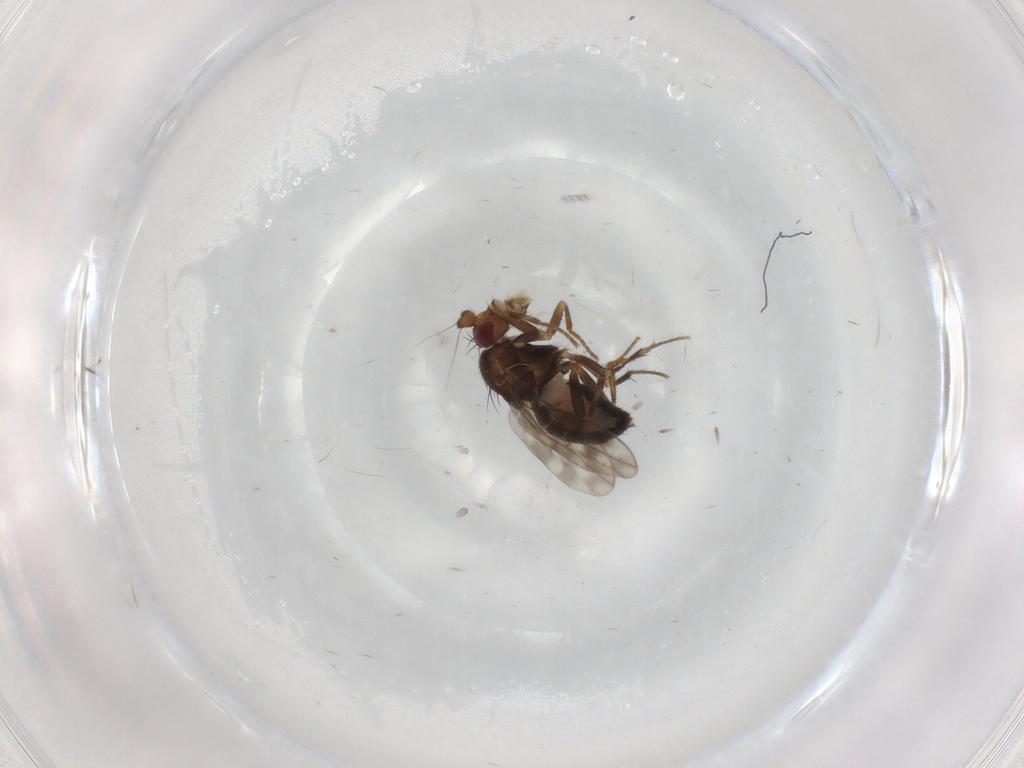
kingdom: Animalia
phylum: Arthropoda
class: Insecta
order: Diptera
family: Sphaeroceridae
